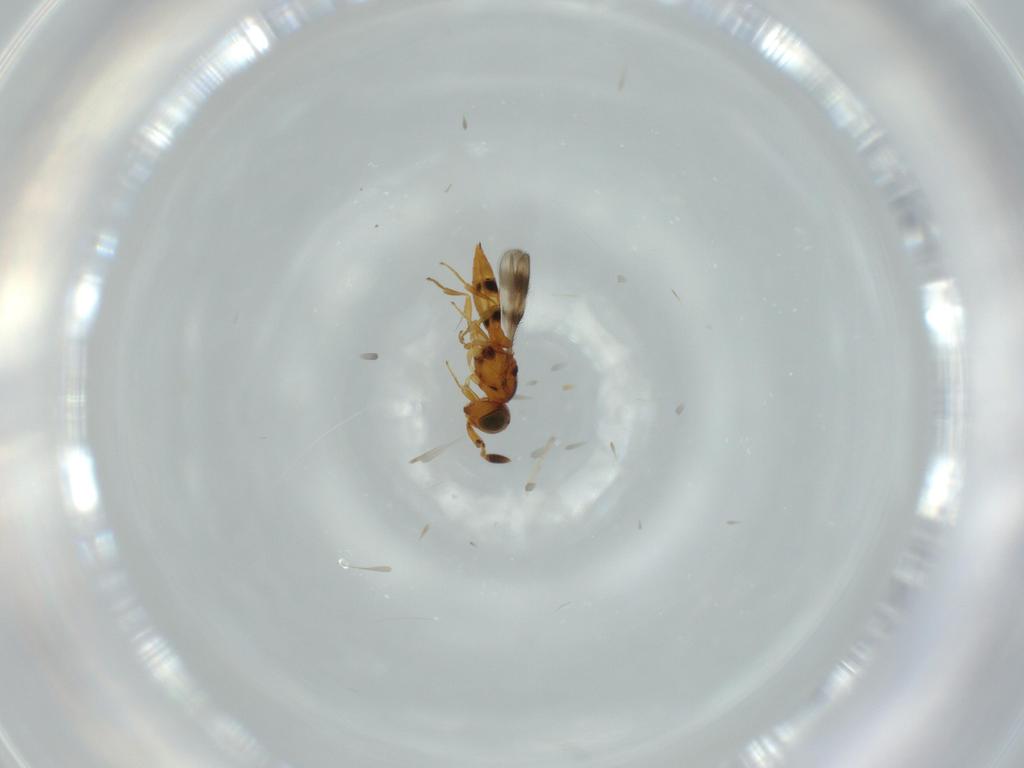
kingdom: Animalia
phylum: Arthropoda
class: Insecta
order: Hymenoptera
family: Scelionidae
